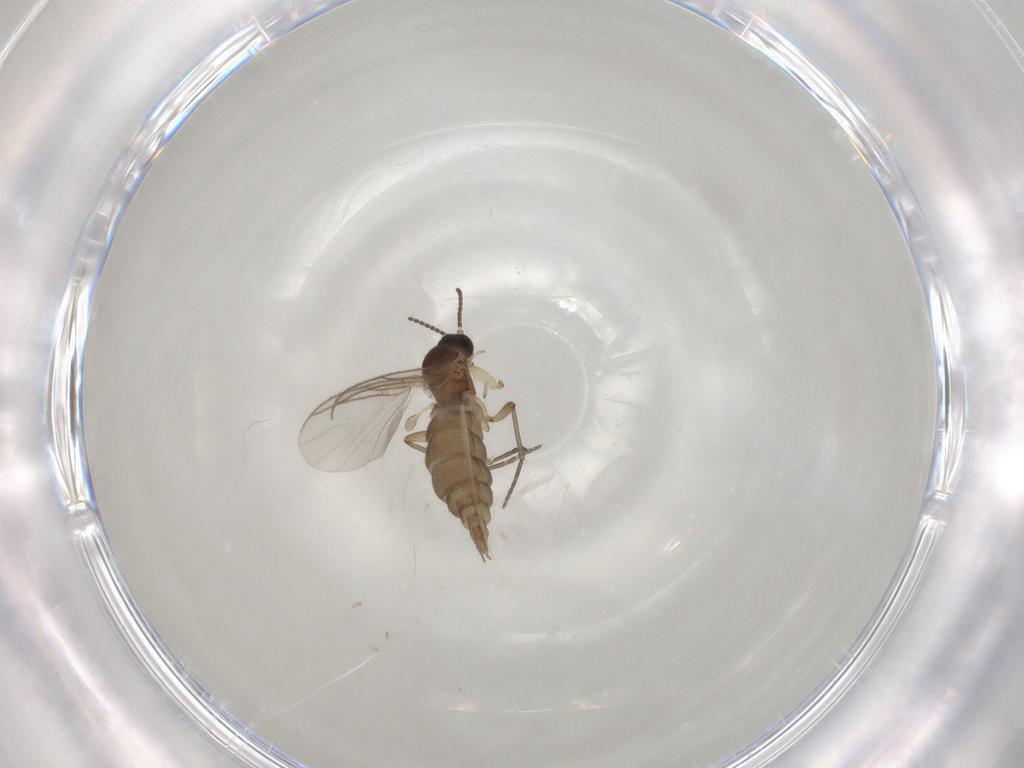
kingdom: Animalia
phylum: Arthropoda
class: Insecta
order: Diptera
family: Sciaridae
